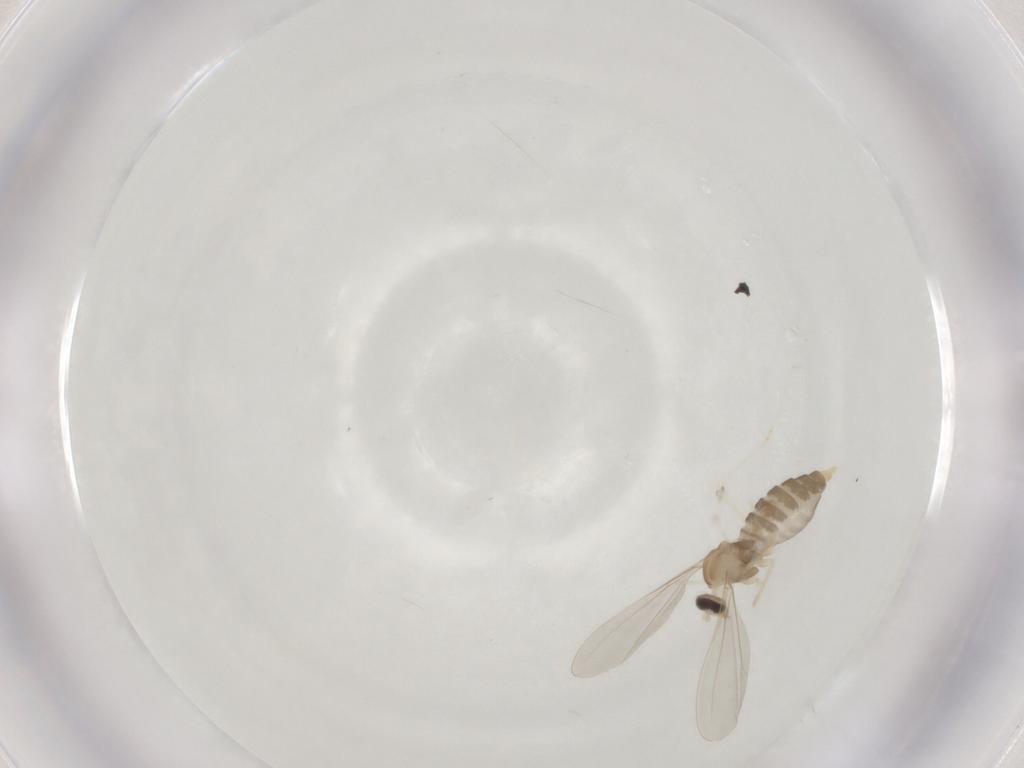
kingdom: Animalia
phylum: Arthropoda
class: Insecta
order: Diptera
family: Cecidomyiidae
